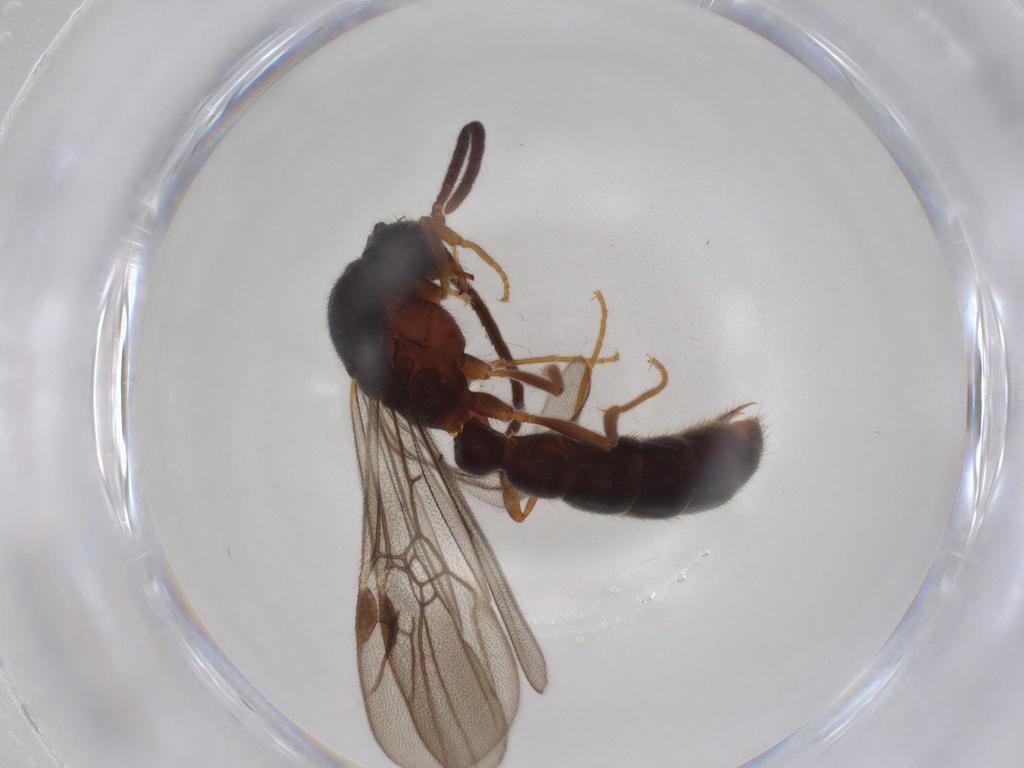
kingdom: Animalia
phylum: Arthropoda
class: Insecta
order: Hymenoptera
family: Formicidae
